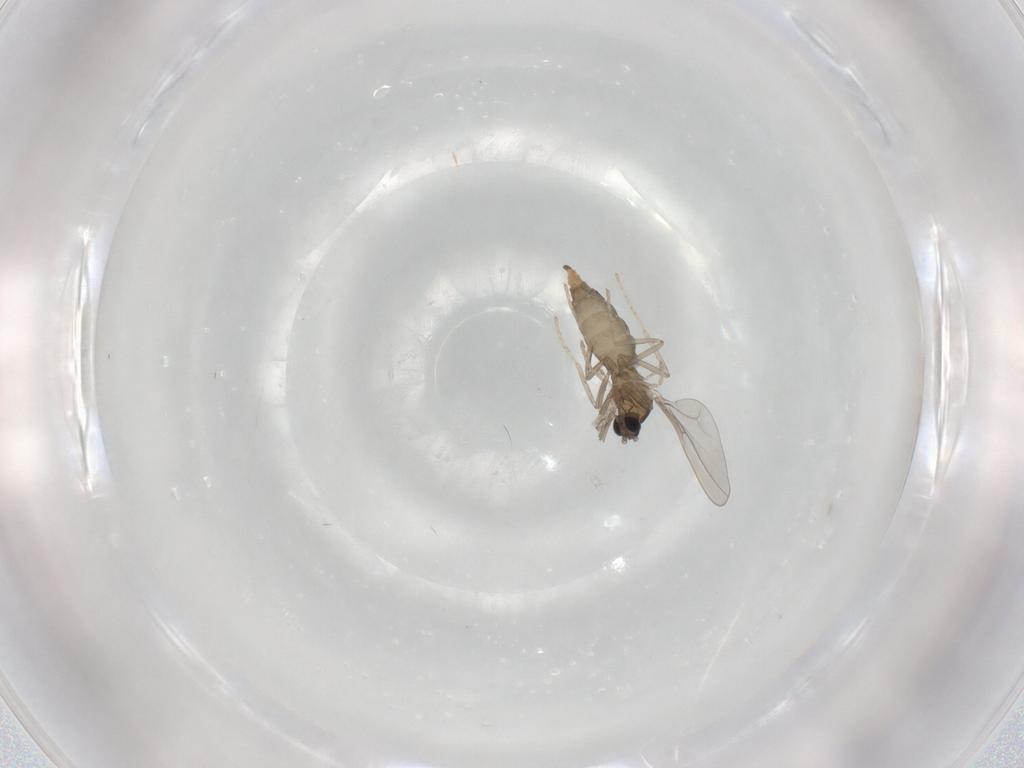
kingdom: Animalia
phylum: Arthropoda
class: Insecta
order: Diptera
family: Cecidomyiidae
